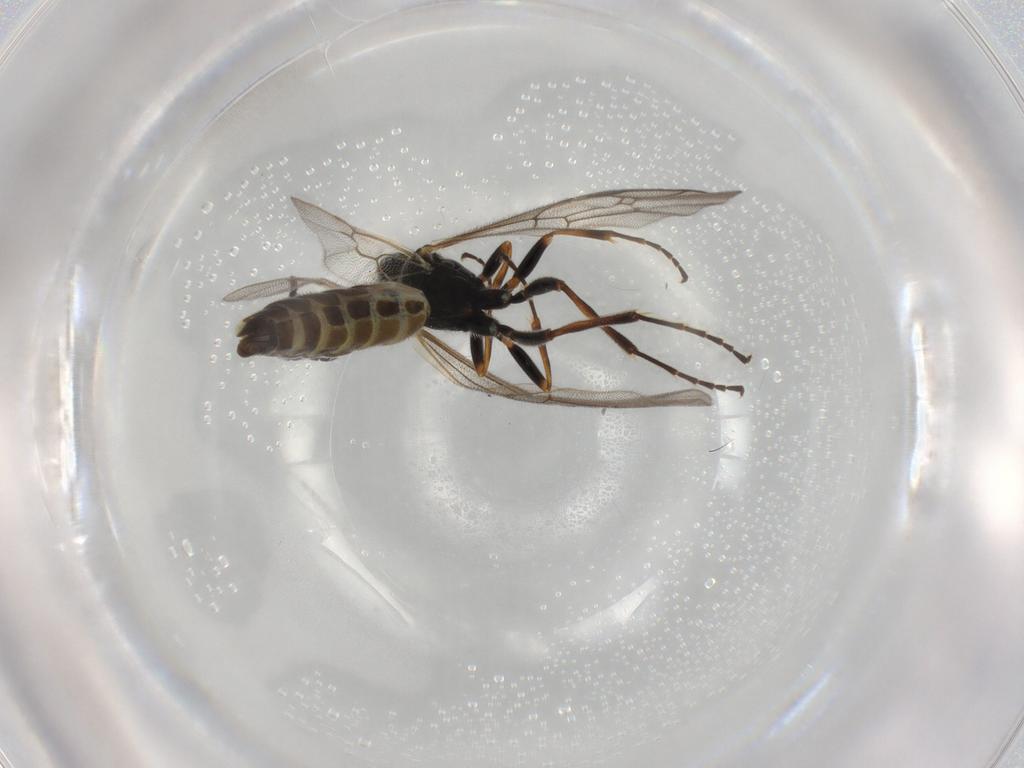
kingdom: Animalia
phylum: Arthropoda
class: Insecta
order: Hymenoptera
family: Ichneumonidae
